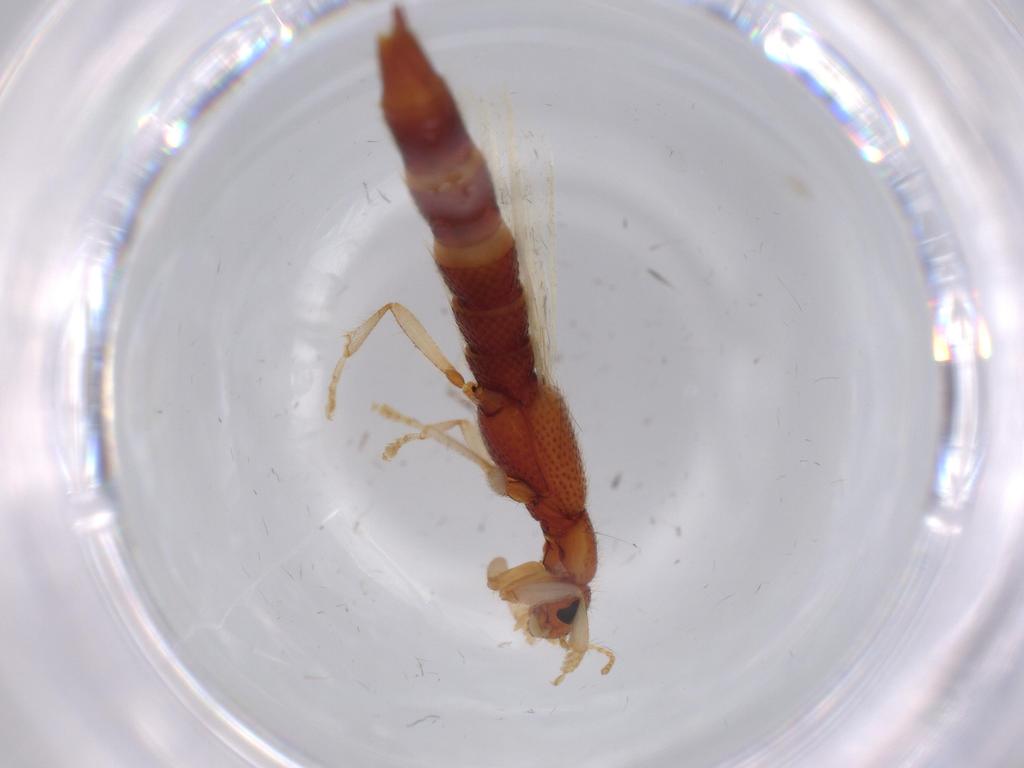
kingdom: Animalia
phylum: Arthropoda
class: Insecta
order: Coleoptera
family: Staphylinidae
